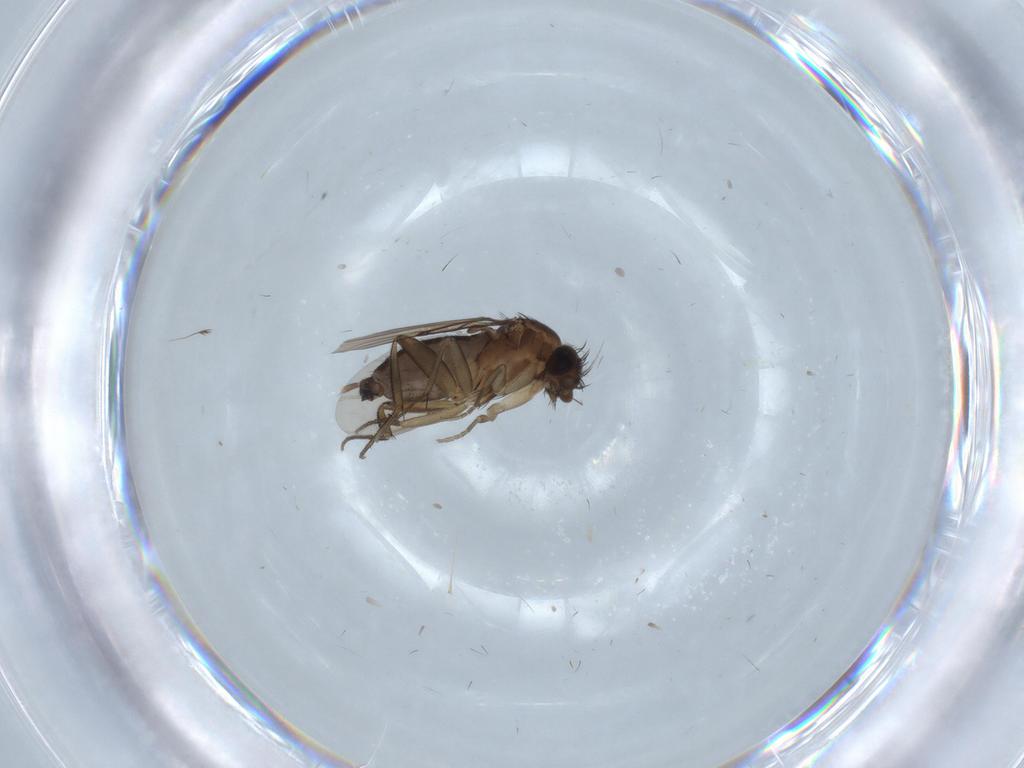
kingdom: Animalia
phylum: Arthropoda
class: Insecta
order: Diptera
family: Phoridae
